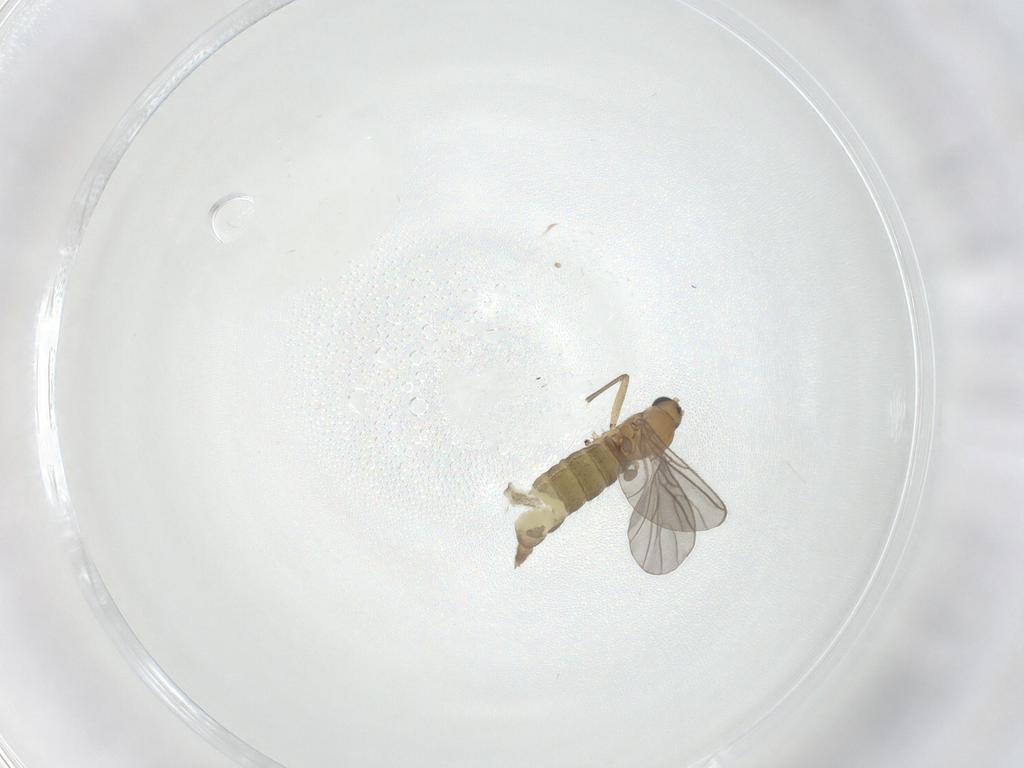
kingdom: Animalia
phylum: Arthropoda
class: Insecta
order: Diptera
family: Sciaridae
